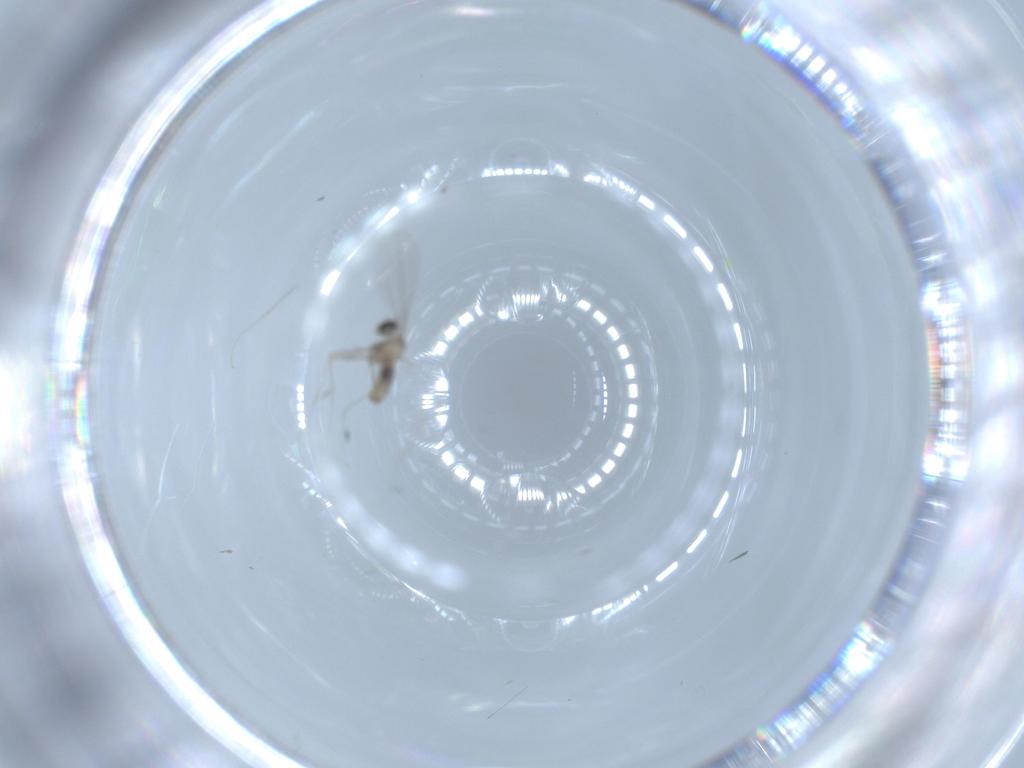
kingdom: Animalia
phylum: Arthropoda
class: Insecta
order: Diptera
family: Cecidomyiidae
